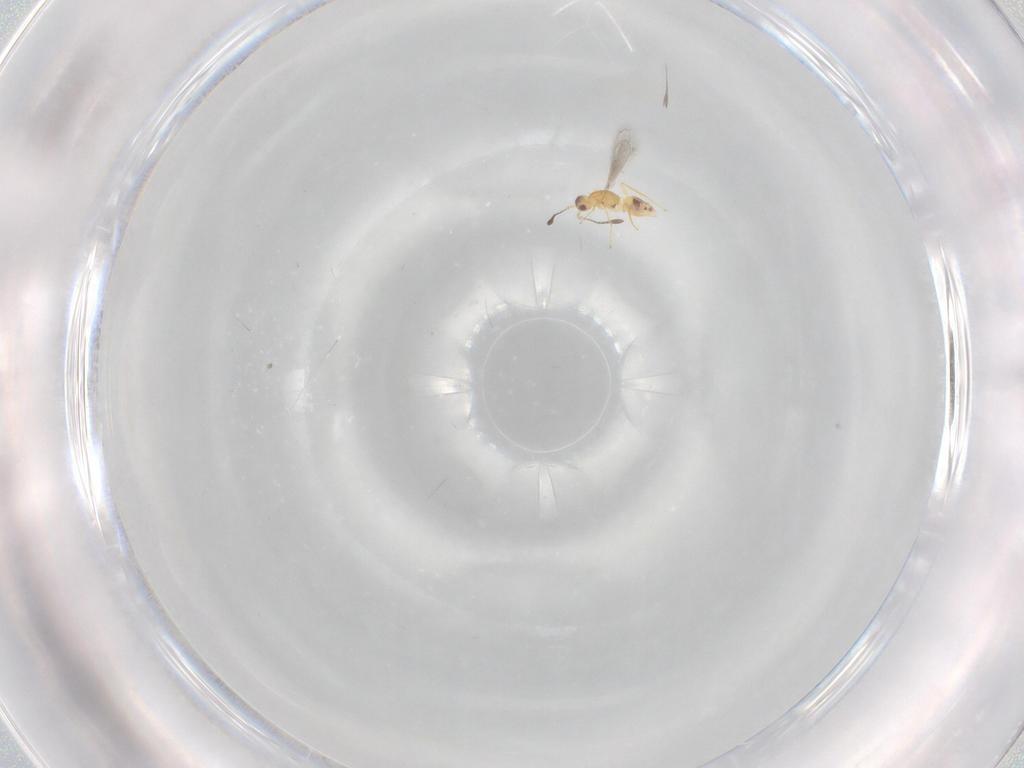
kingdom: Animalia
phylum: Arthropoda
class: Insecta
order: Hymenoptera
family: Mymaridae
